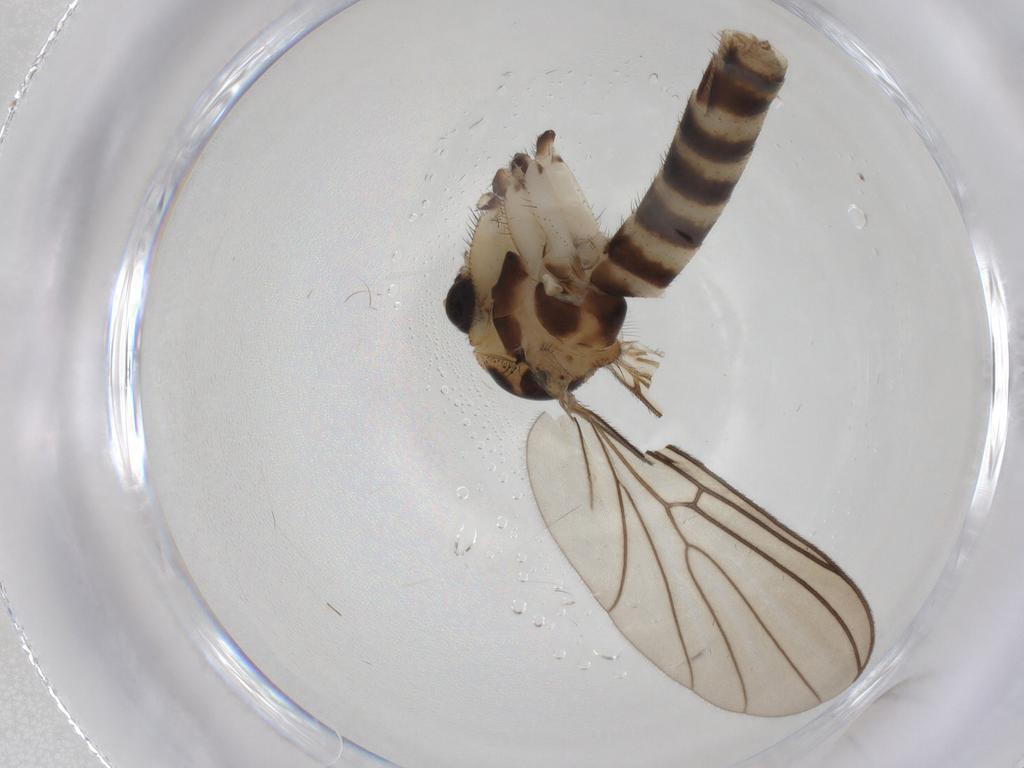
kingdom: Animalia
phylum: Arthropoda
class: Insecta
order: Diptera
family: Chironomidae
